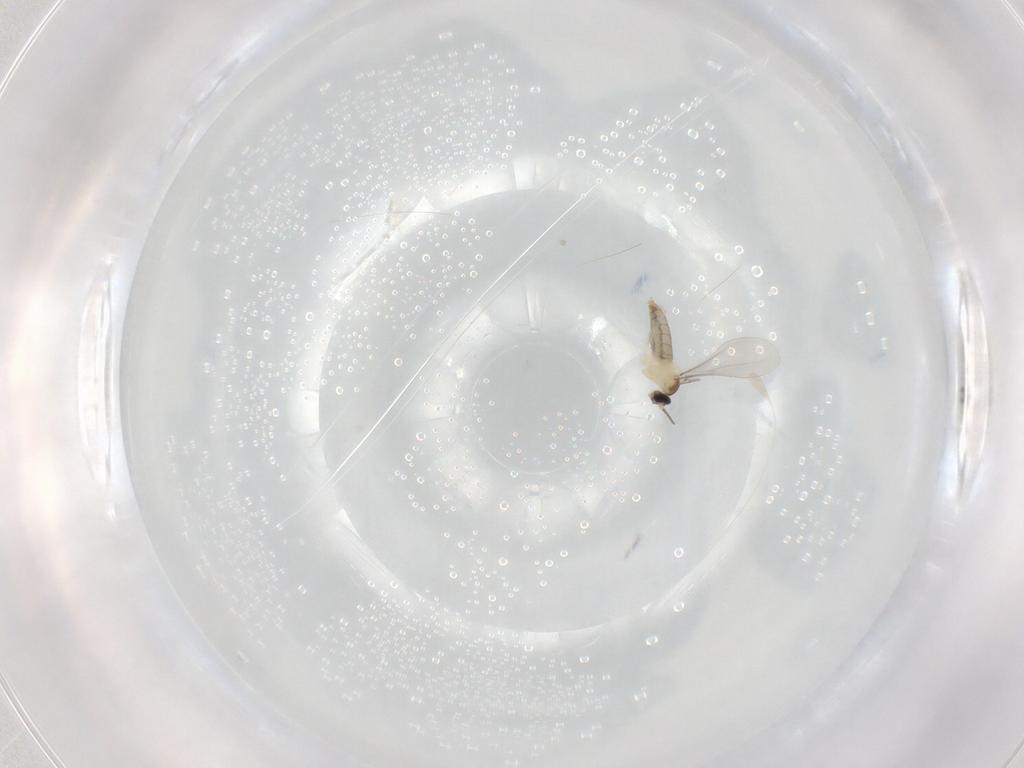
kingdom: Animalia
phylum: Arthropoda
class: Insecta
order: Diptera
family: Cecidomyiidae
